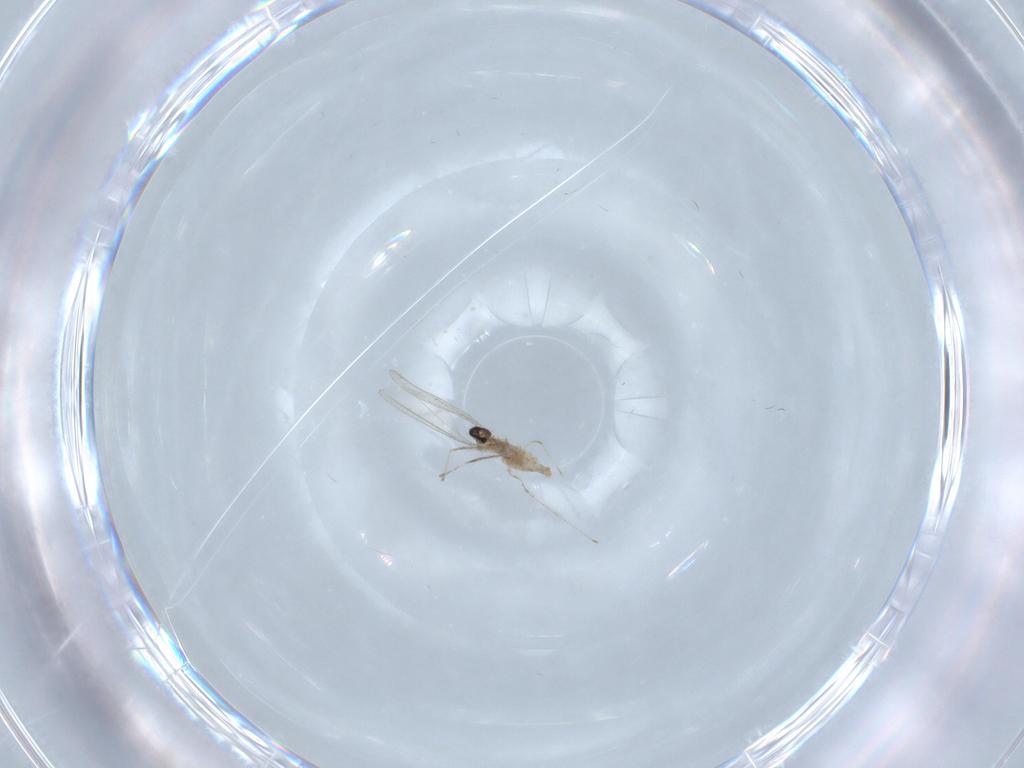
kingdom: Animalia
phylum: Arthropoda
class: Insecta
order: Diptera
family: Cecidomyiidae
